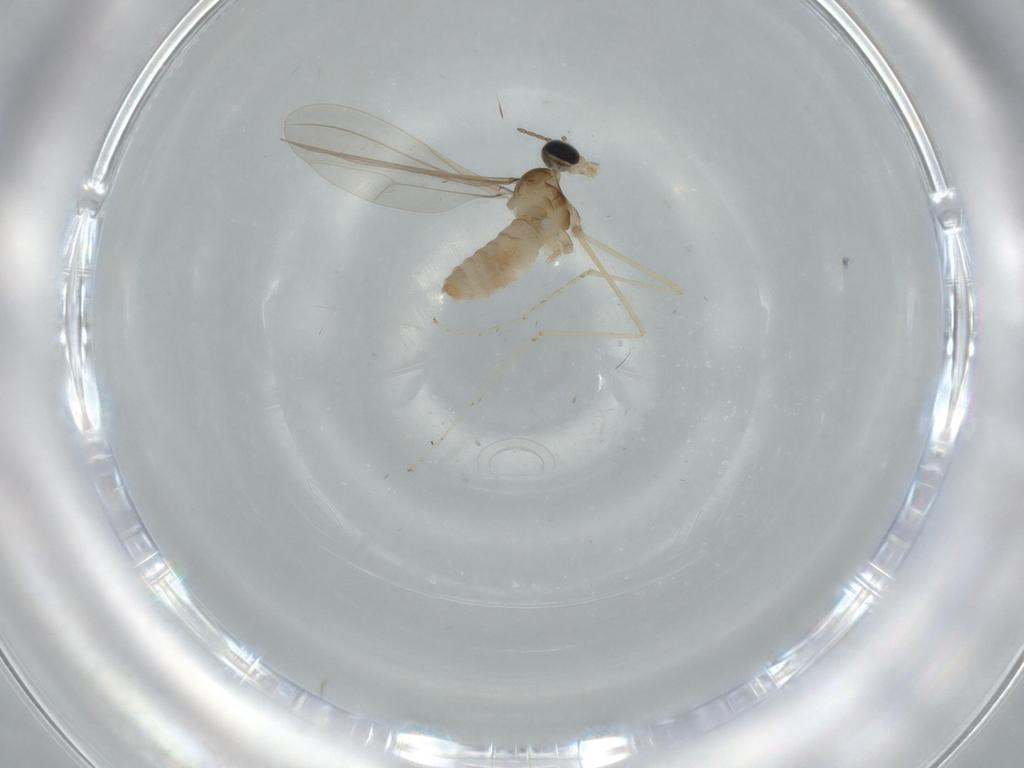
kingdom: Animalia
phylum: Arthropoda
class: Insecta
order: Diptera
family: Cecidomyiidae
